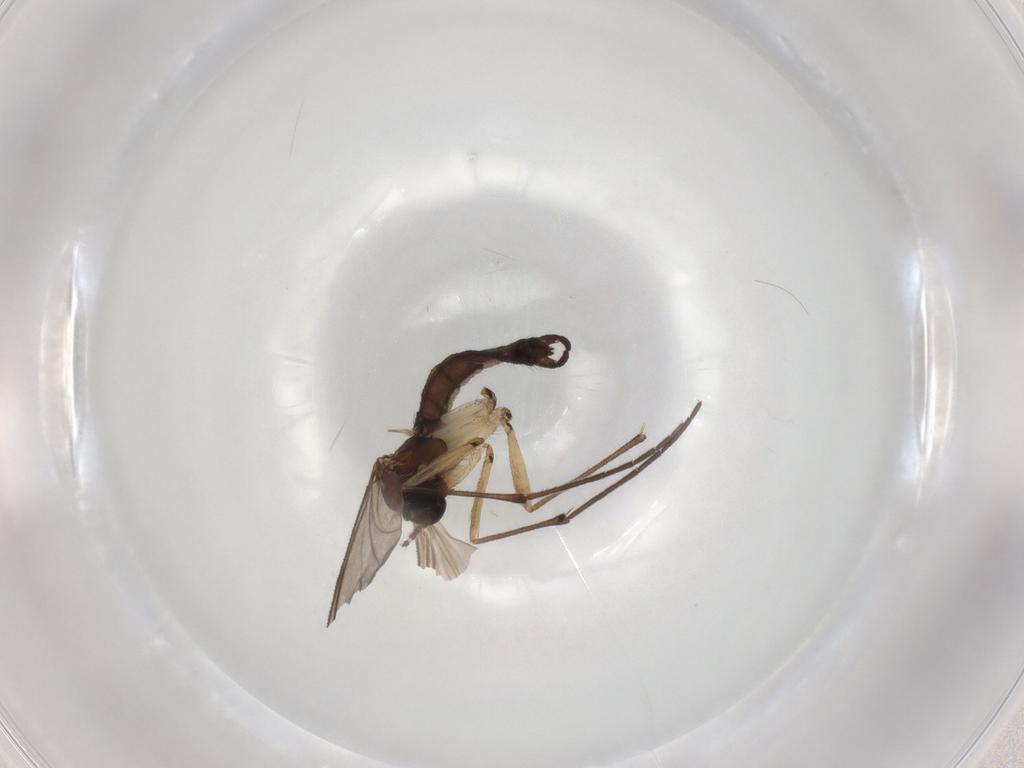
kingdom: Animalia
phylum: Arthropoda
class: Insecta
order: Diptera
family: Sciaridae
